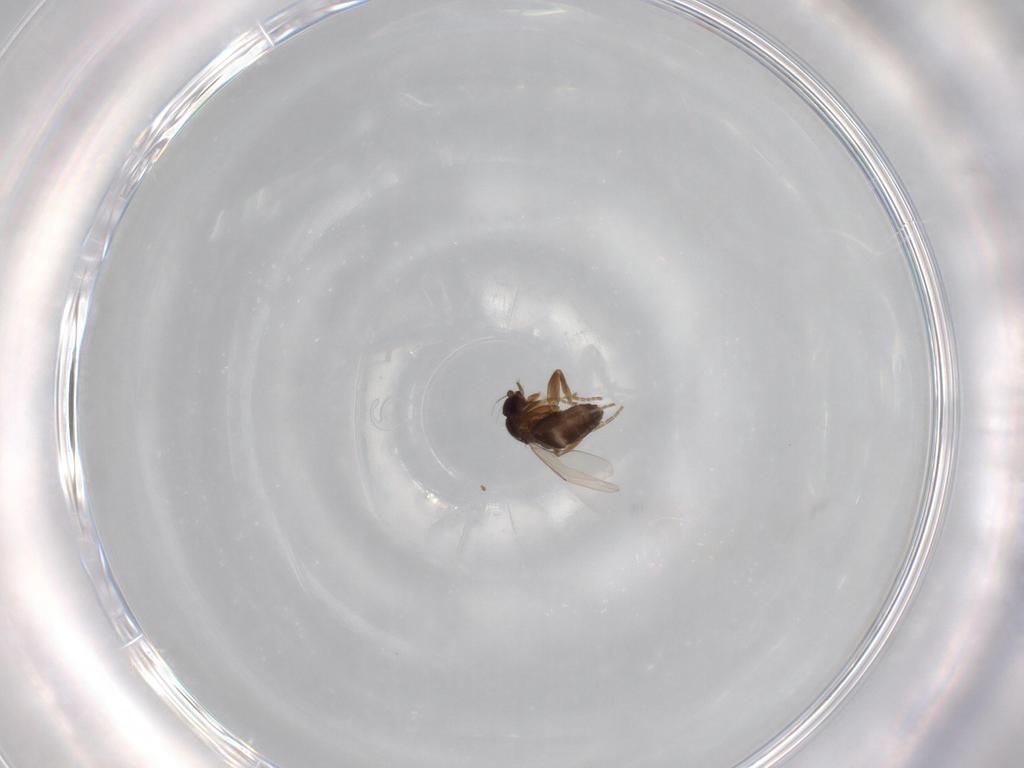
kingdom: Animalia
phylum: Arthropoda
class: Insecta
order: Diptera
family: Phoridae
